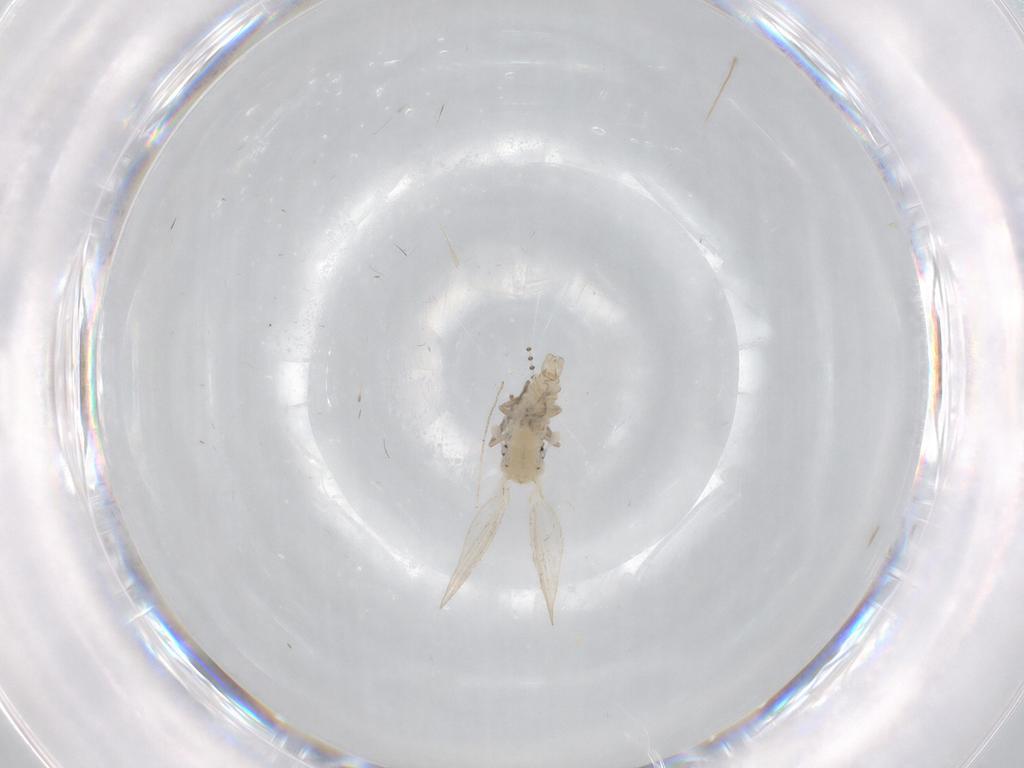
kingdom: Animalia
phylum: Arthropoda
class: Insecta
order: Diptera
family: Psychodidae
